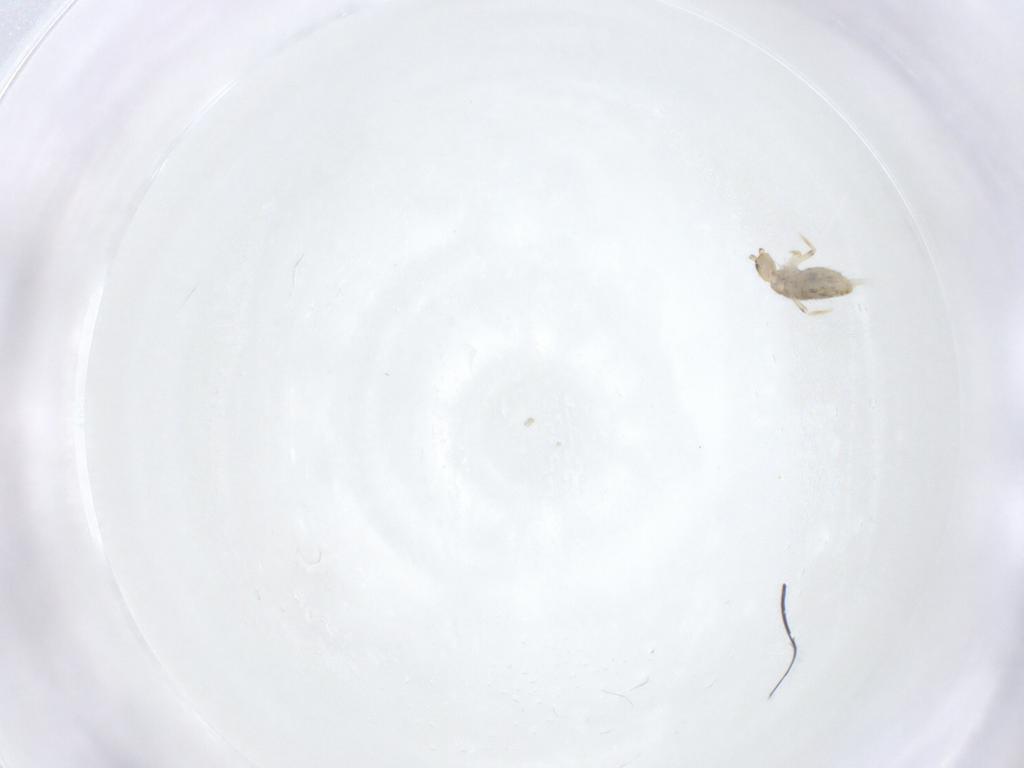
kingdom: Animalia
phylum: Arthropoda
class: Collembola
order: Entomobryomorpha
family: Entomobryidae
